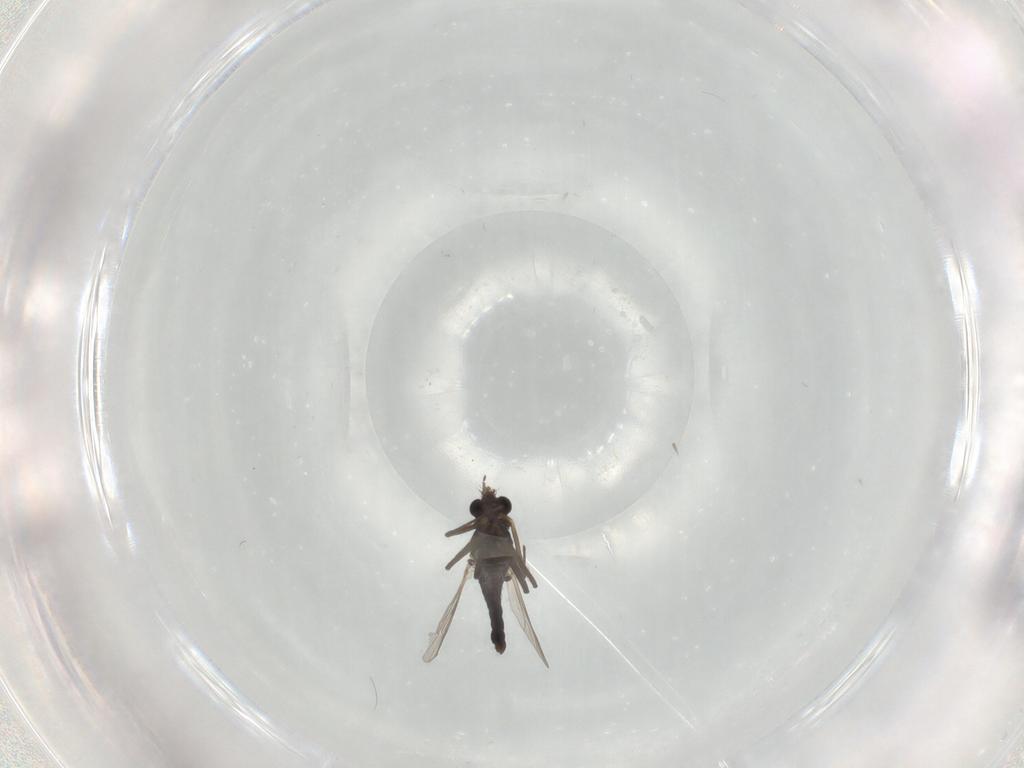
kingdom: Animalia
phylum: Arthropoda
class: Insecta
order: Diptera
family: Chironomidae
